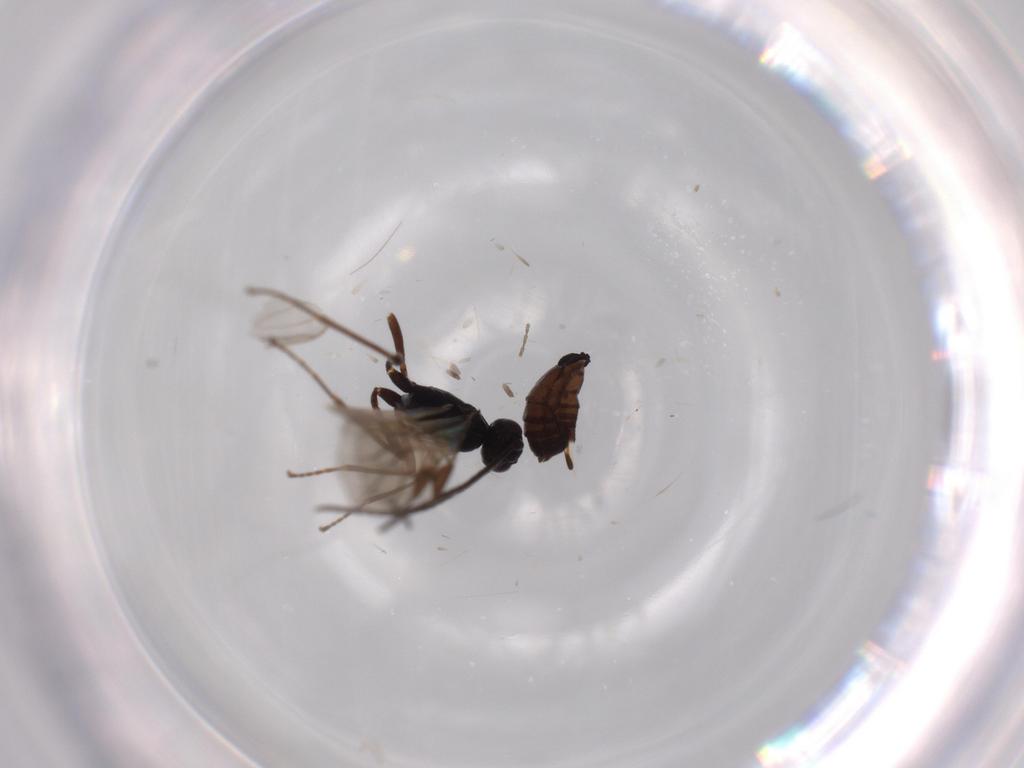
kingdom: Animalia
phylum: Arthropoda
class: Insecta
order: Hymenoptera
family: Braconidae
